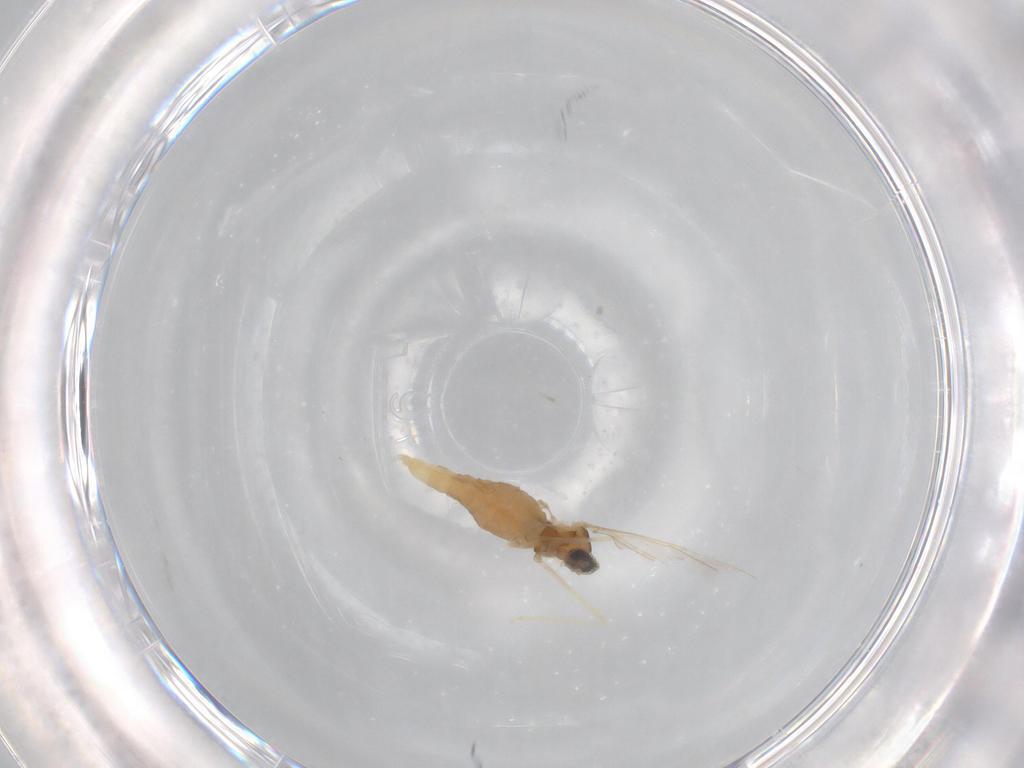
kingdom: Animalia
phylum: Arthropoda
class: Insecta
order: Diptera
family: Cecidomyiidae
